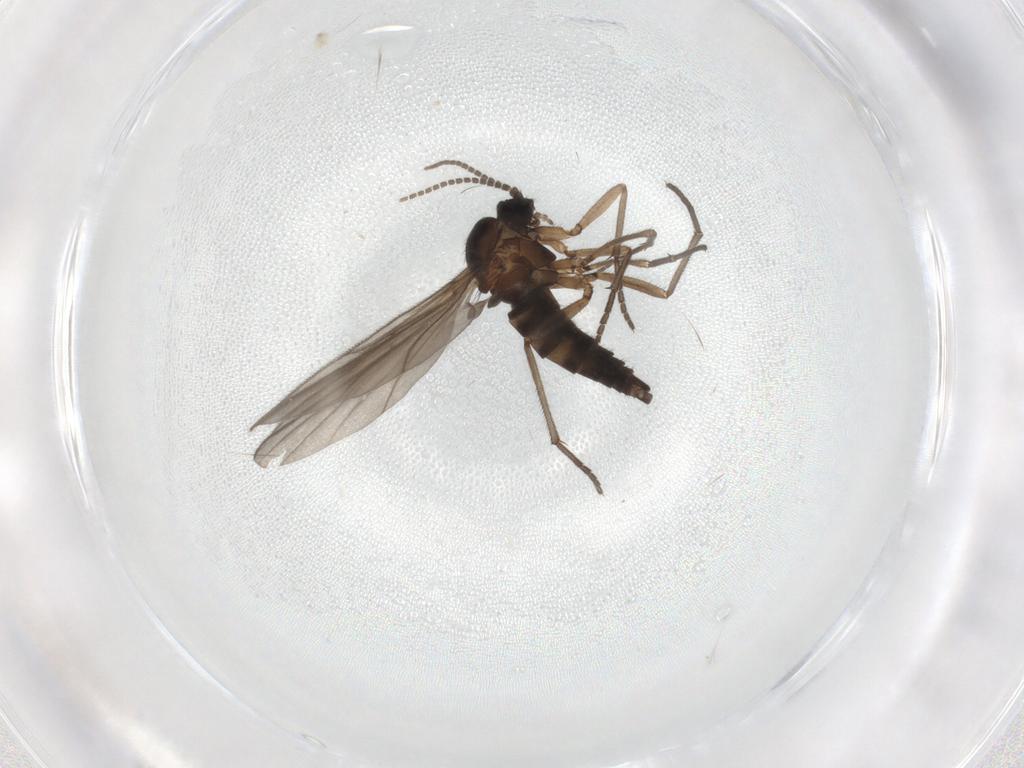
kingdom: Animalia
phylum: Arthropoda
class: Insecta
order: Diptera
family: Sciaridae
